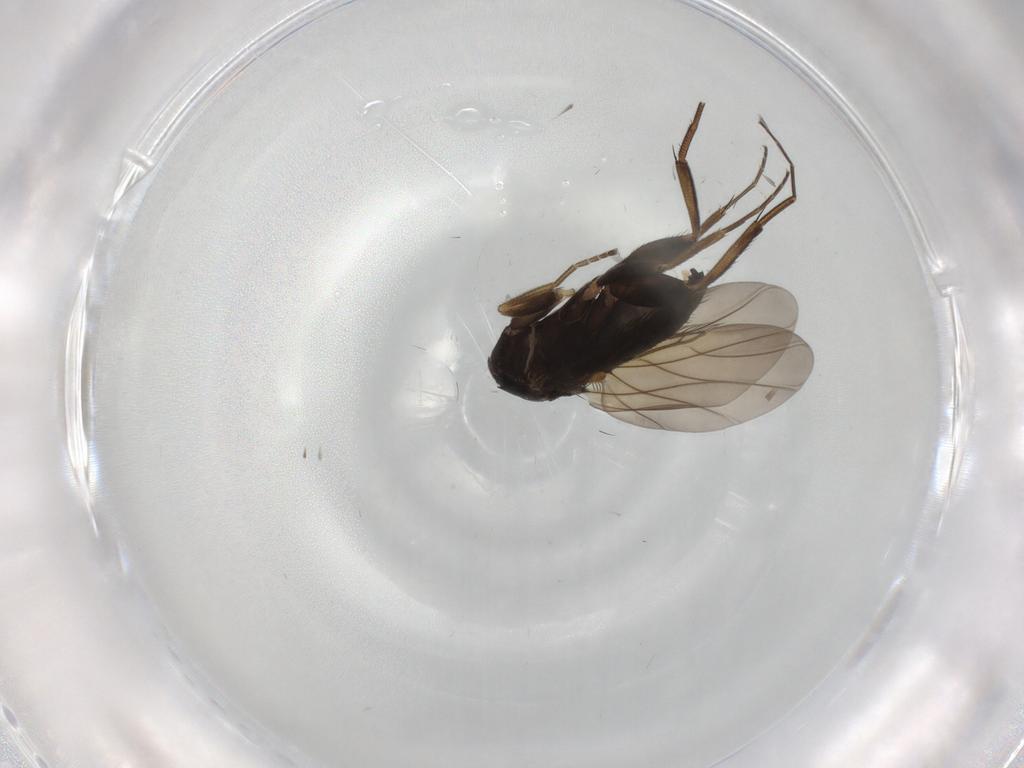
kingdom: Animalia
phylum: Arthropoda
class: Insecta
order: Diptera
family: Phoridae
